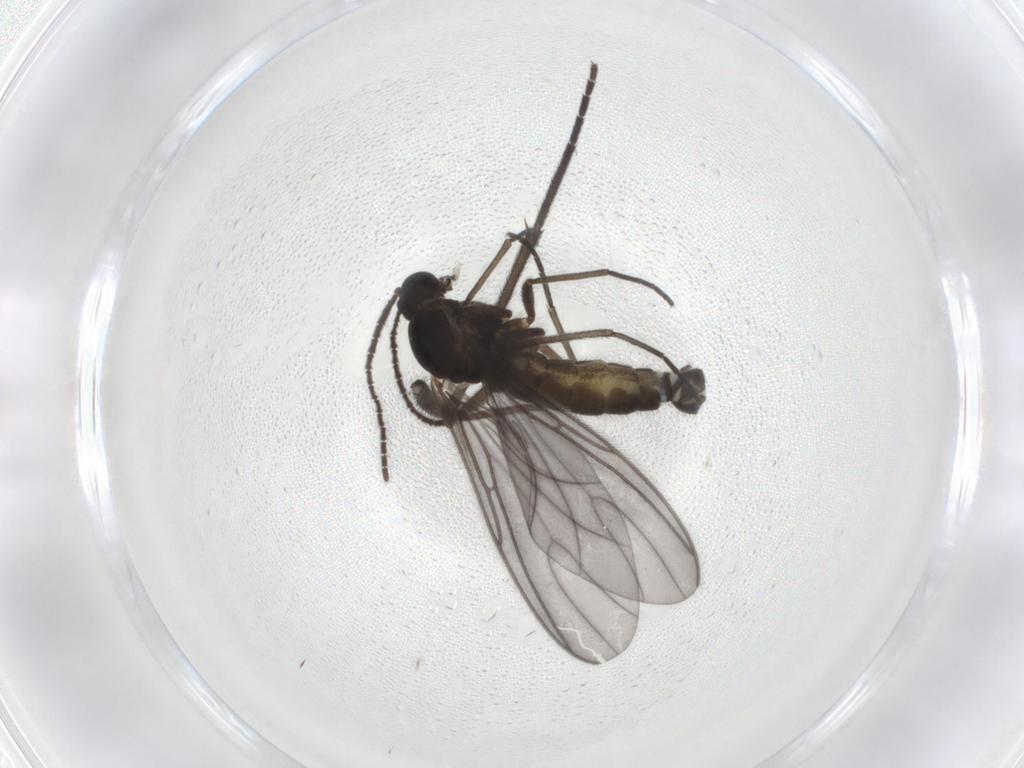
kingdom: Animalia
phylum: Arthropoda
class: Insecta
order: Diptera
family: Sciaridae
